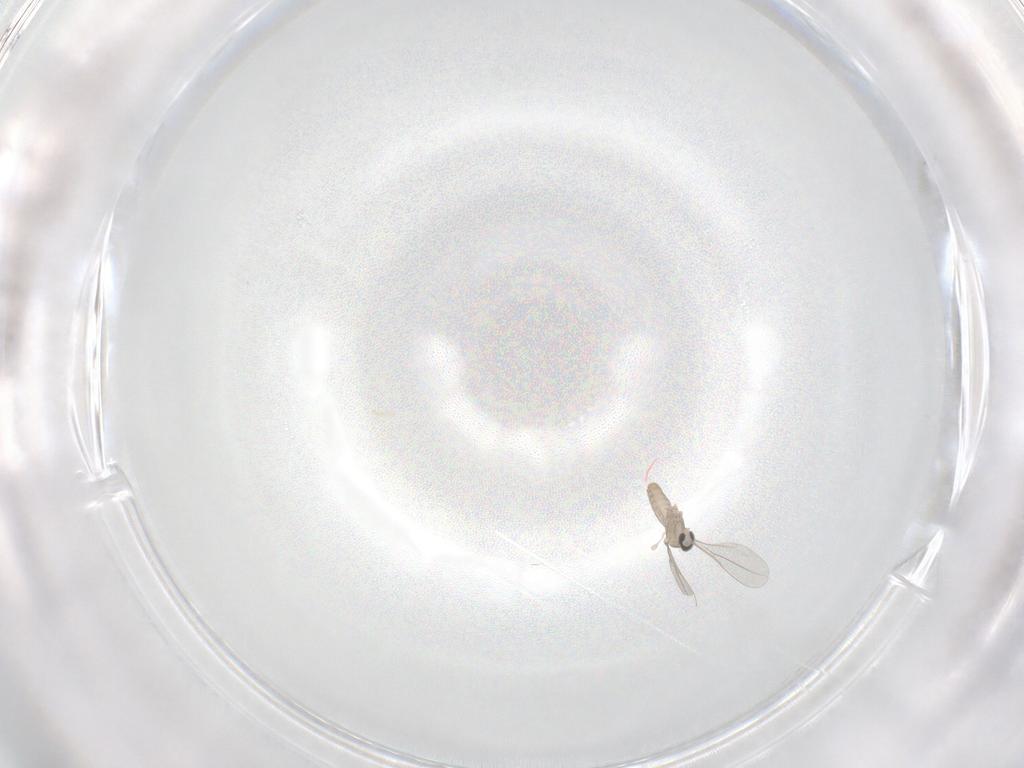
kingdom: Animalia
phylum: Arthropoda
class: Insecta
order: Diptera
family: Cecidomyiidae
